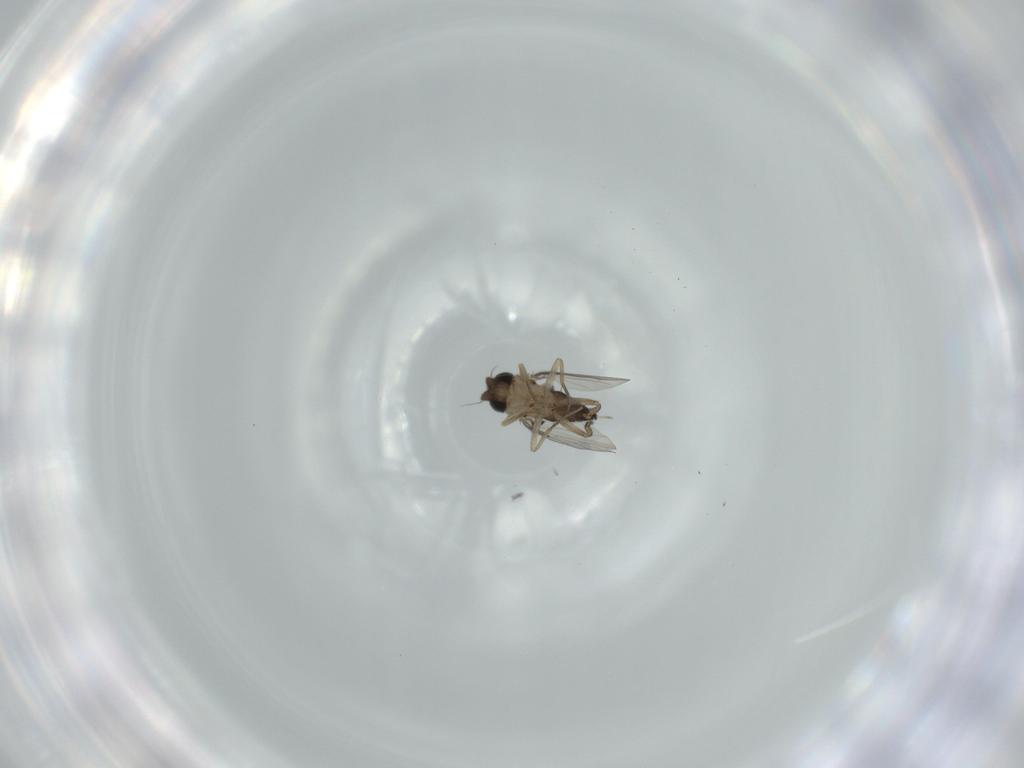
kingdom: Animalia
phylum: Arthropoda
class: Insecta
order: Diptera
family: Phoridae
